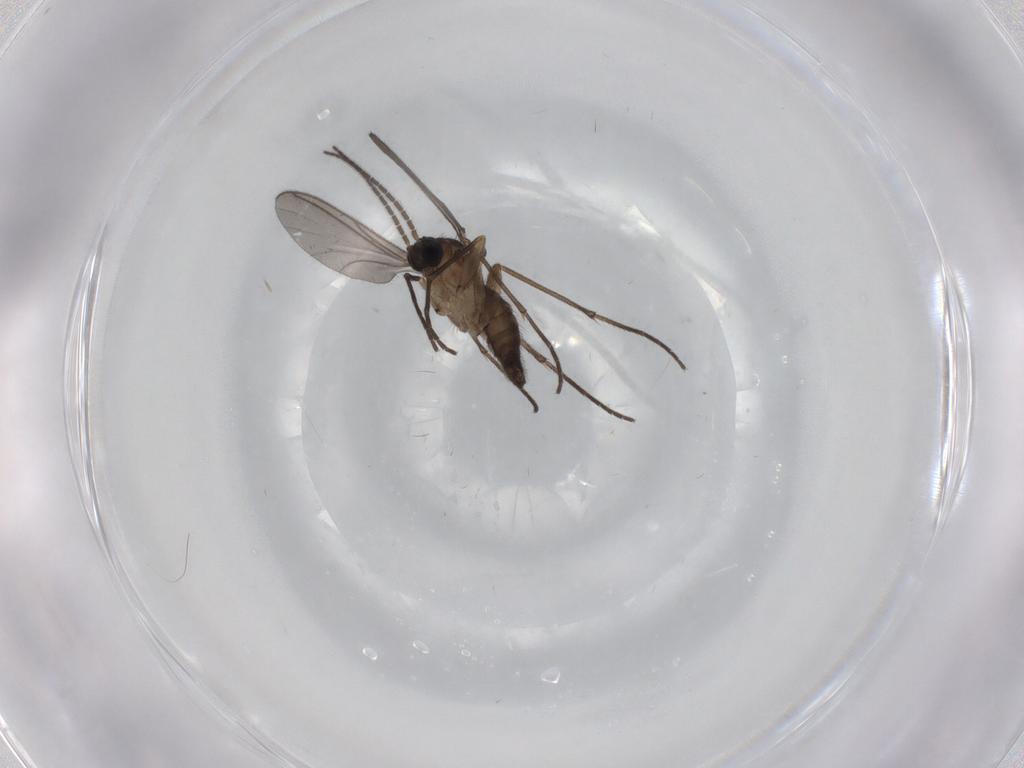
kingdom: Animalia
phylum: Arthropoda
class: Insecta
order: Diptera
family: Sciaridae
